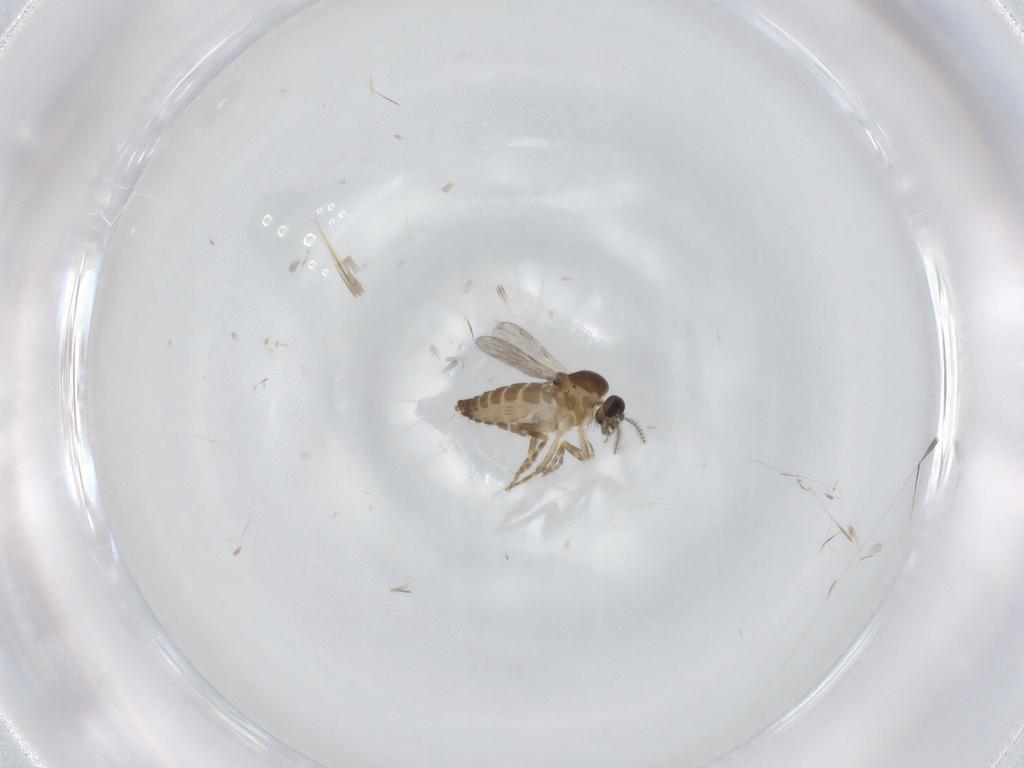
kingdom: Animalia
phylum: Arthropoda
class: Insecta
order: Diptera
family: Ceratopogonidae
